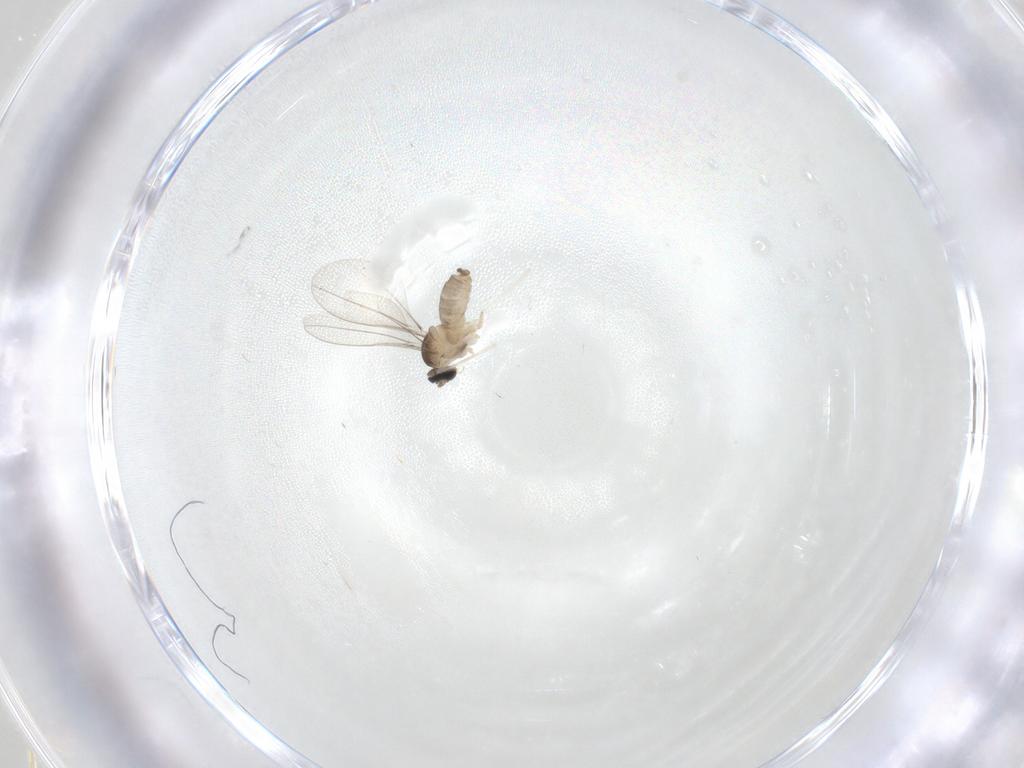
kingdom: Animalia
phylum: Arthropoda
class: Insecta
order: Diptera
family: Cecidomyiidae
